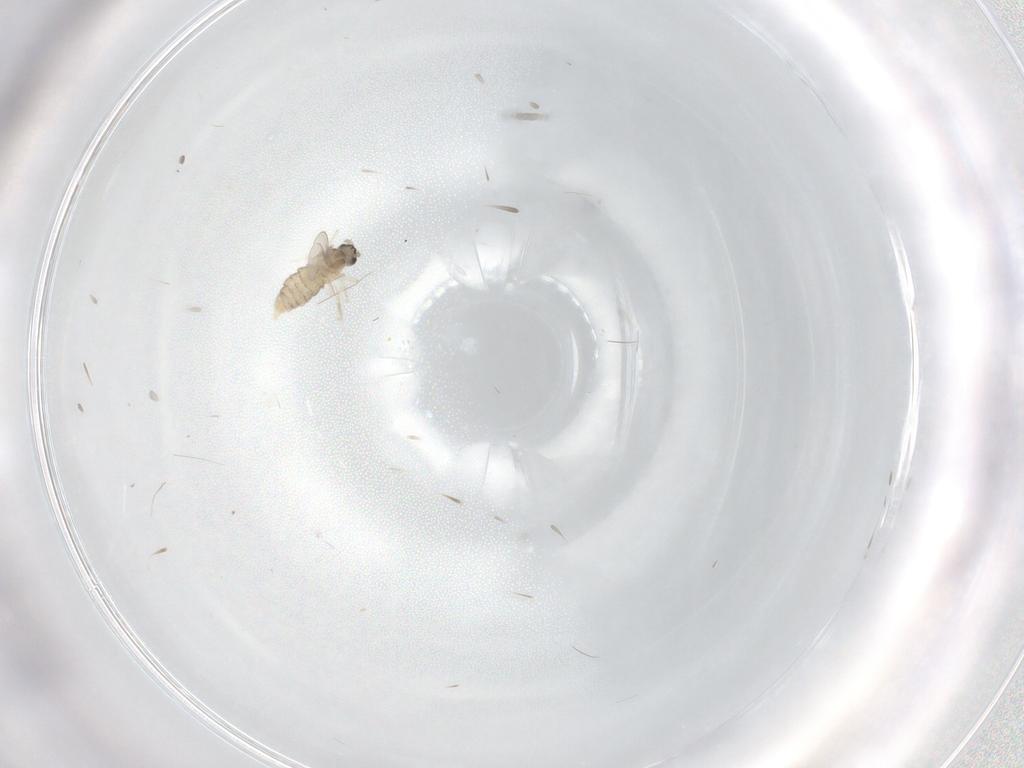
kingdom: Animalia
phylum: Arthropoda
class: Insecta
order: Diptera
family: Cecidomyiidae
